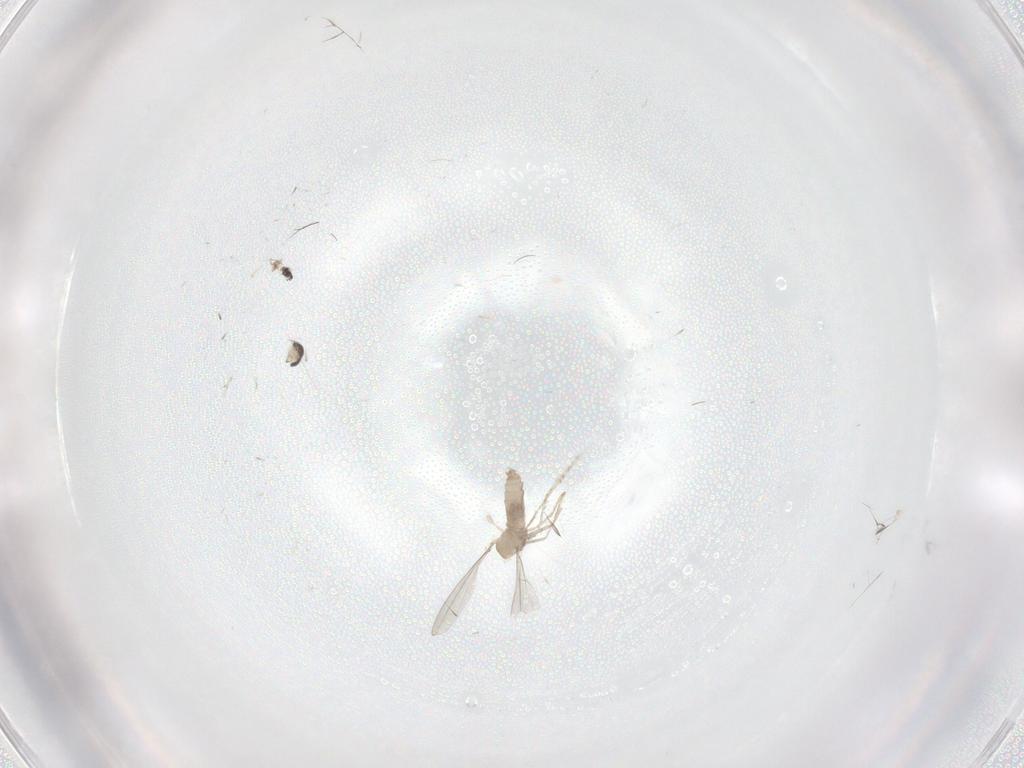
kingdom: Animalia
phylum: Arthropoda
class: Insecta
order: Diptera
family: Cecidomyiidae
